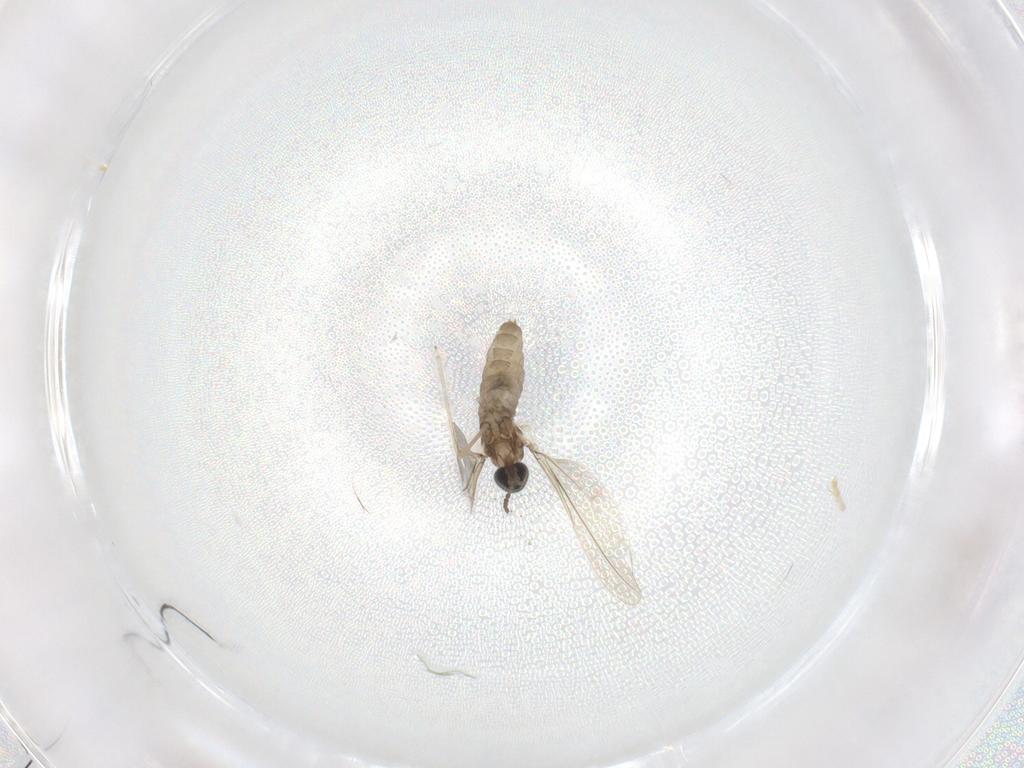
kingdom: Animalia
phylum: Arthropoda
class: Insecta
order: Diptera
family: Cecidomyiidae
